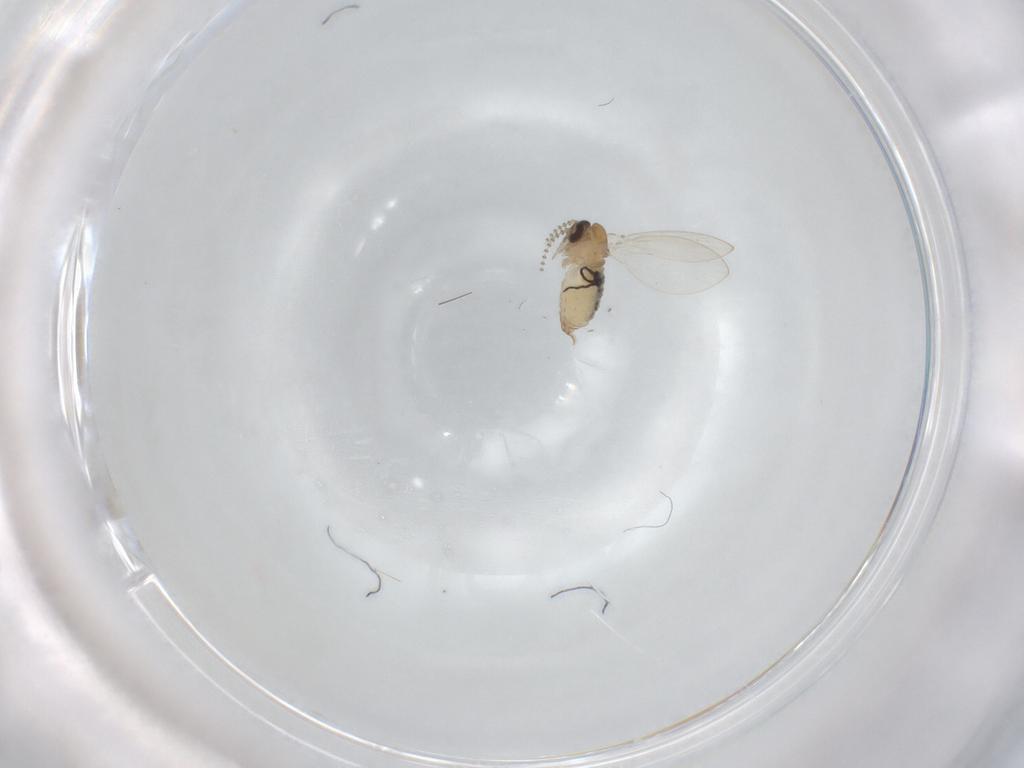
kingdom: Animalia
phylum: Arthropoda
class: Insecta
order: Diptera
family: Psychodidae
